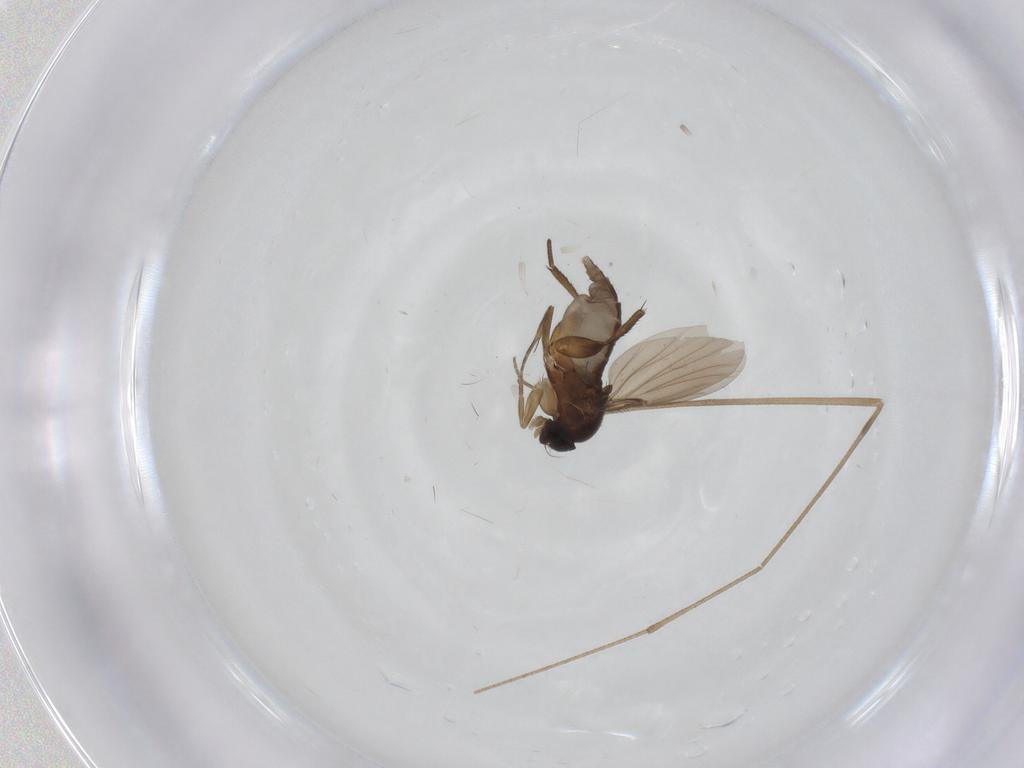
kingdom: Animalia
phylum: Arthropoda
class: Insecta
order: Diptera
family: Phoridae
